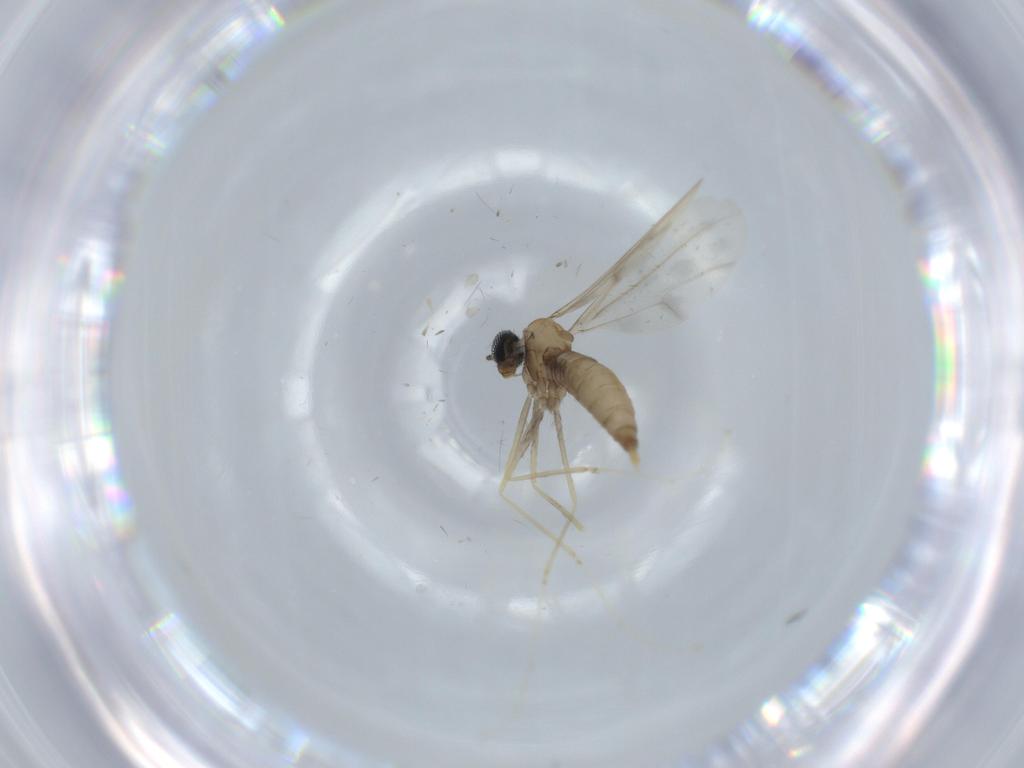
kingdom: Animalia
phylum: Arthropoda
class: Insecta
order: Diptera
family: Cecidomyiidae
